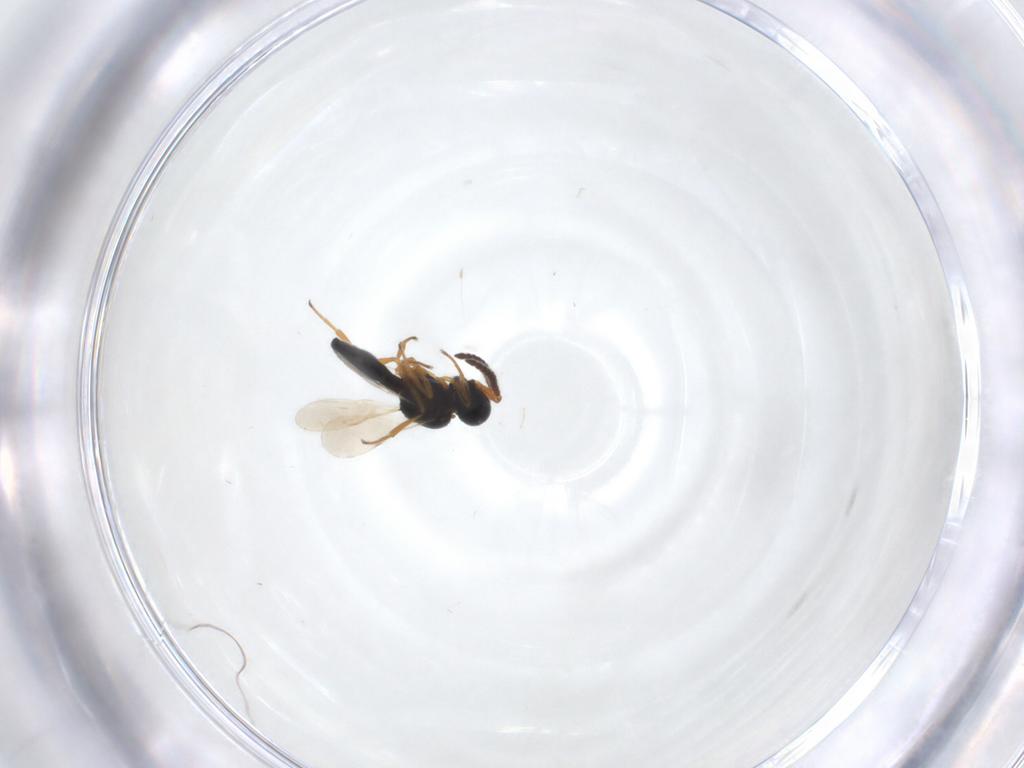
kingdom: Animalia
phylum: Arthropoda
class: Insecta
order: Hymenoptera
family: Scelionidae
